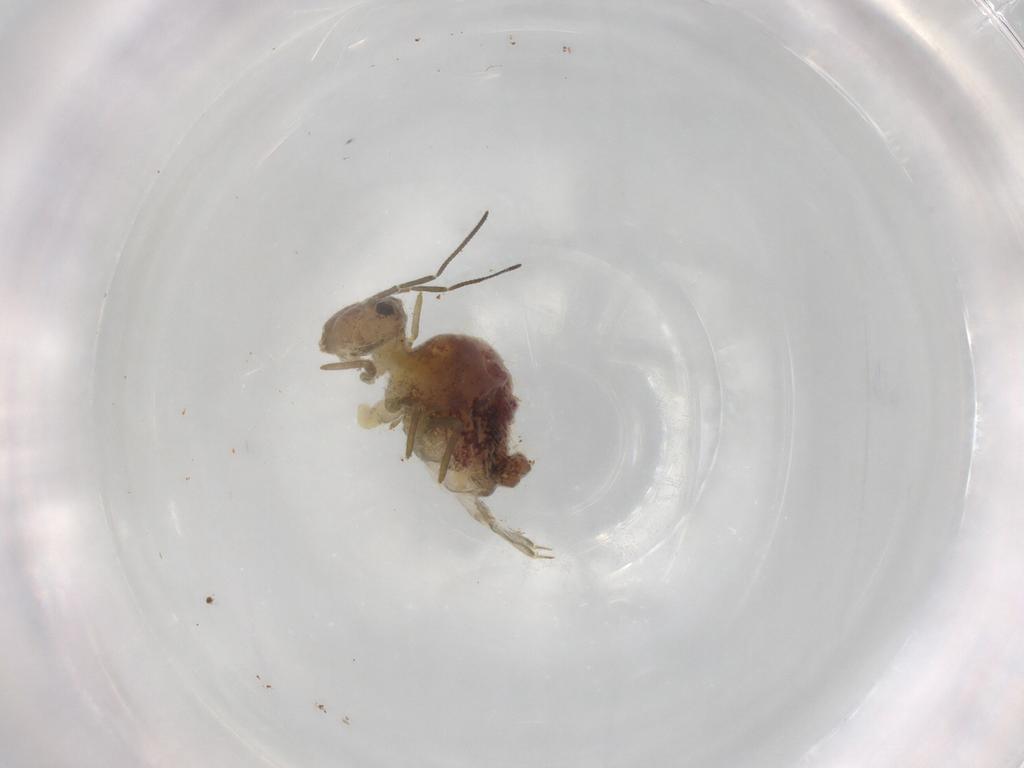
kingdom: Animalia
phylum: Arthropoda
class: Collembola
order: Symphypleona
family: Sminthuridae
